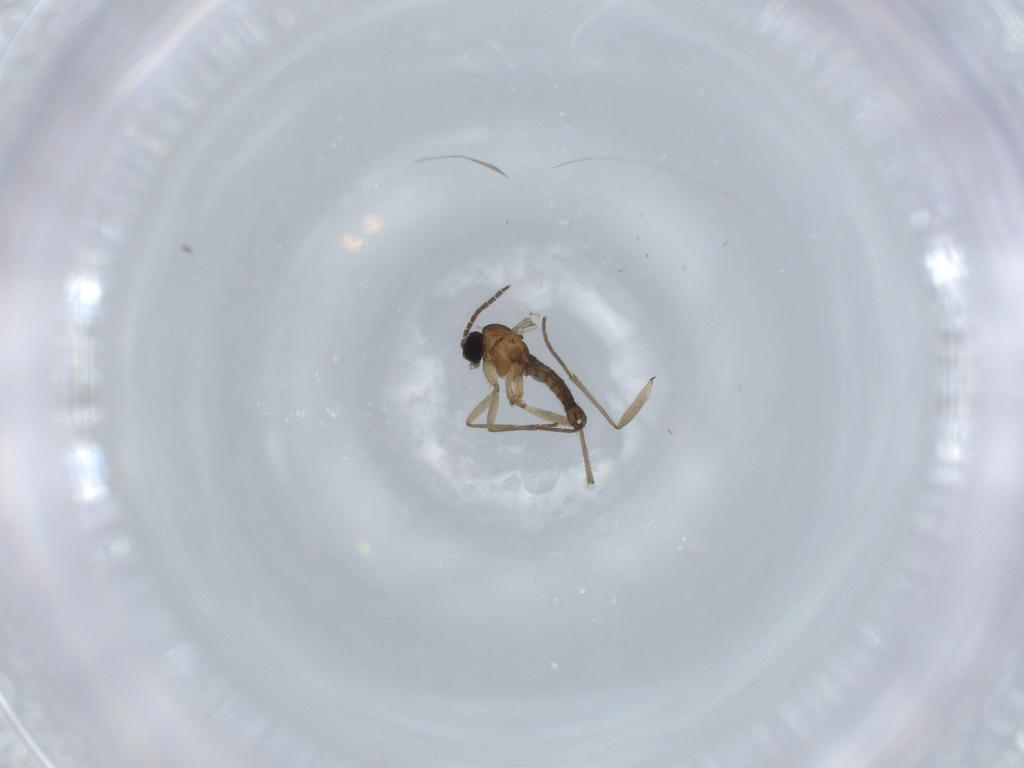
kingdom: Animalia
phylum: Arthropoda
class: Insecta
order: Diptera
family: Sciaridae
